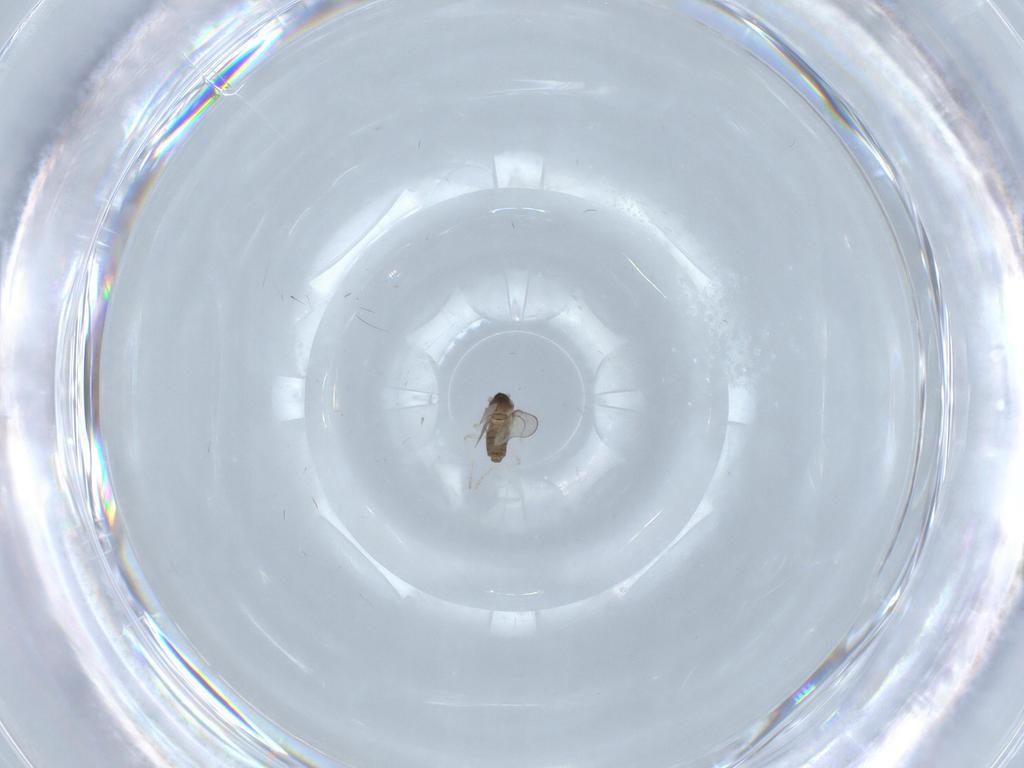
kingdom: Animalia
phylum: Arthropoda
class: Insecta
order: Diptera
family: Cecidomyiidae
